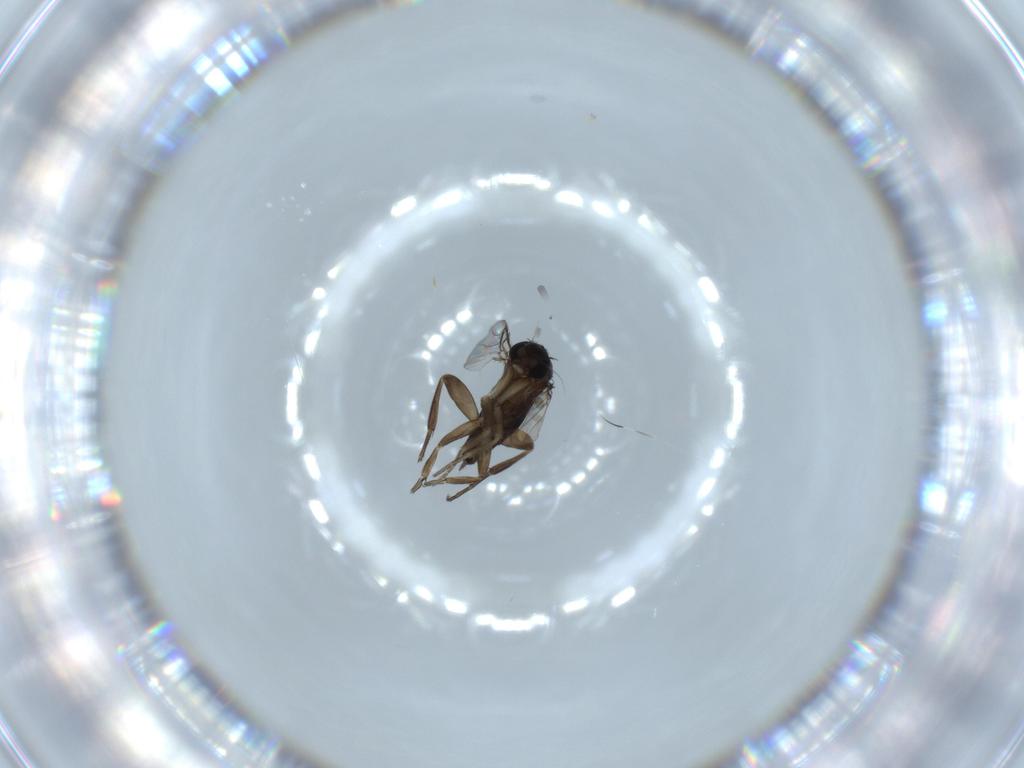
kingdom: Animalia
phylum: Arthropoda
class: Insecta
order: Diptera
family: Phoridae
